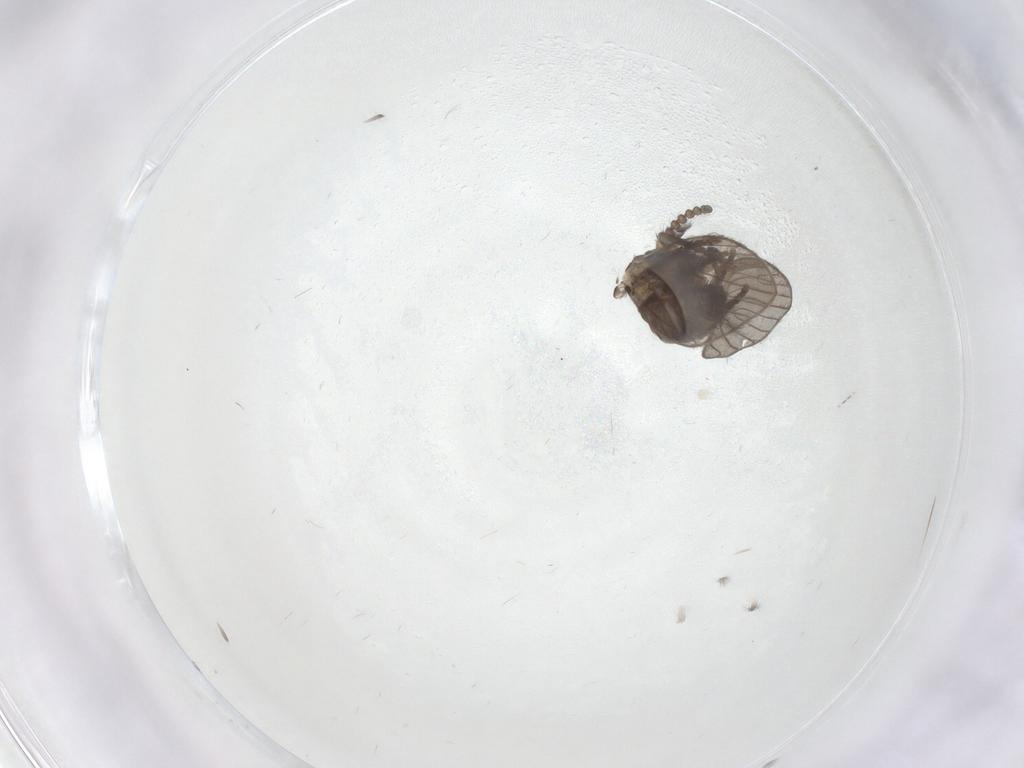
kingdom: Animalia
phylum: Arthropoda
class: Insecta
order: Diptera
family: Psychodidae
